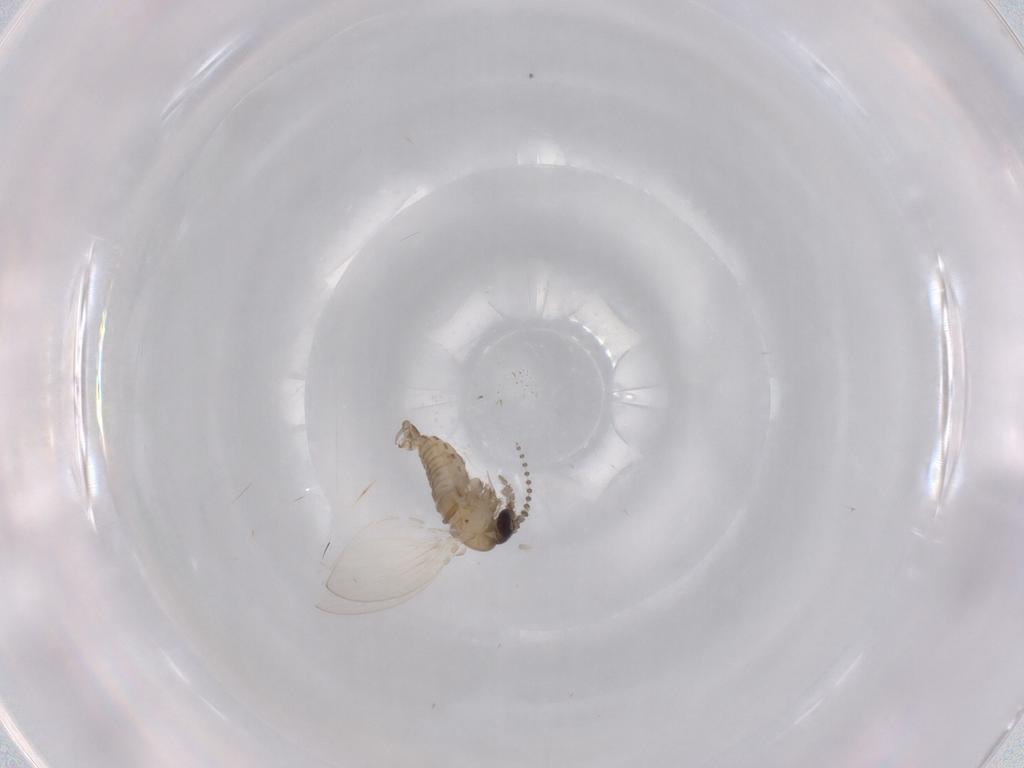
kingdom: Animalia
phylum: Arthropoda
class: Insecta
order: Diptera
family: Psychodidae
